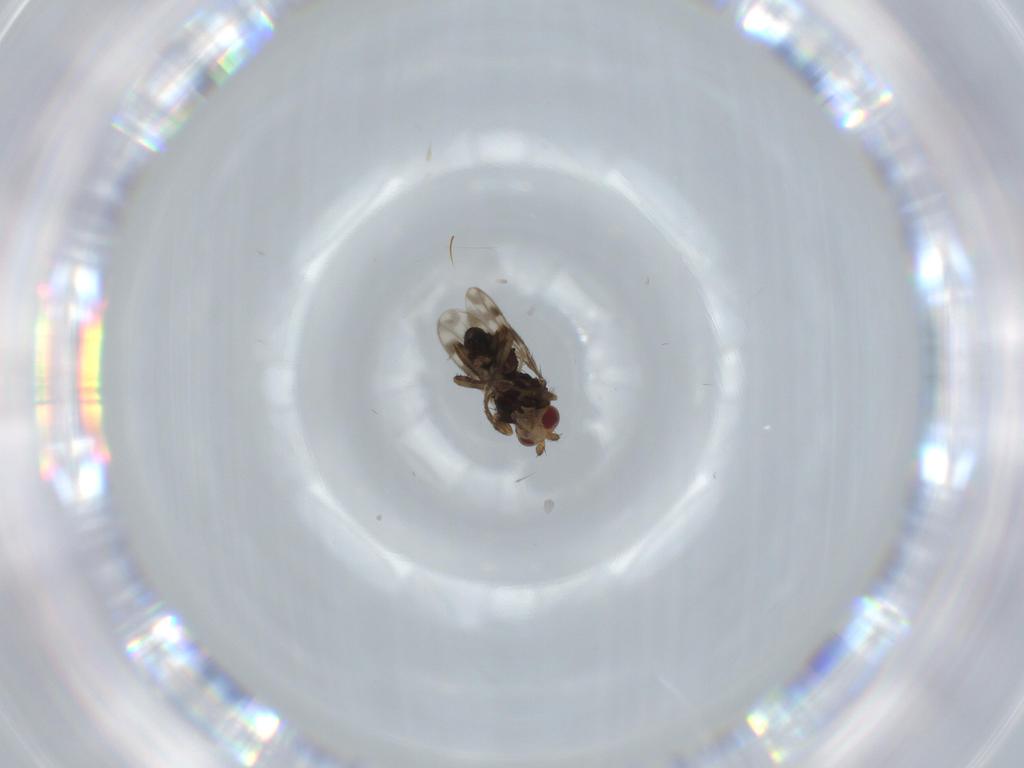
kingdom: Animalia
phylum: Arthropoda
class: Insecta
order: Diptera
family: Sphaeroceridae
